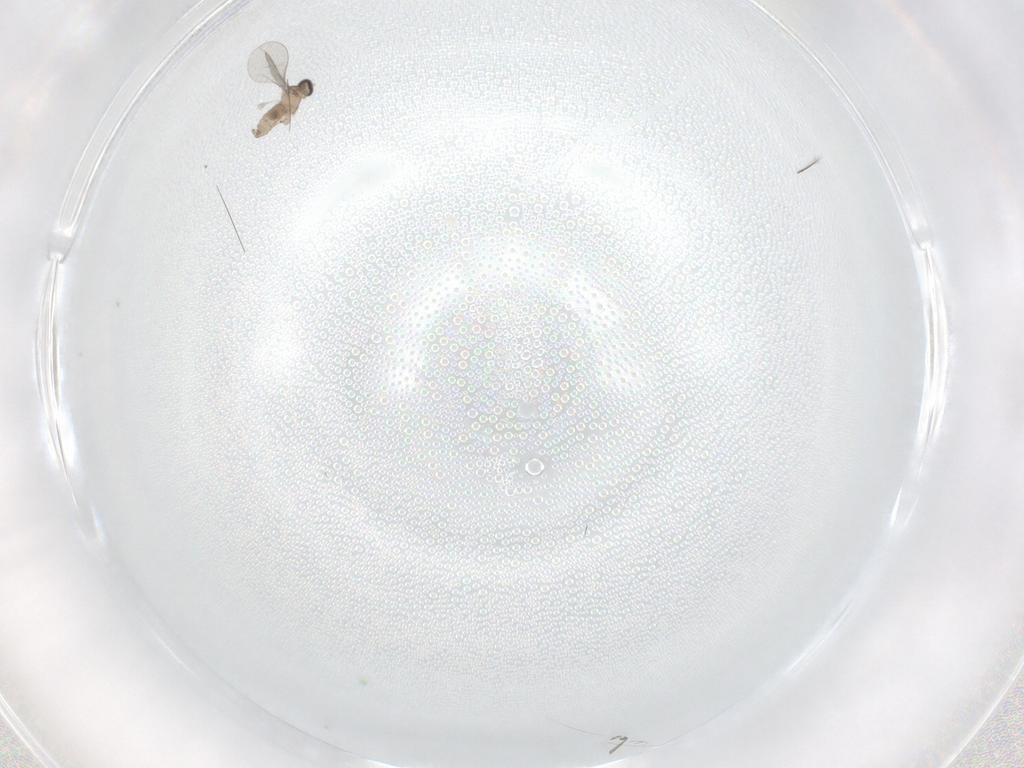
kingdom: Animalia
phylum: Arthropoda
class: Insecta
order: Diptera
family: Cecidomyiidae
